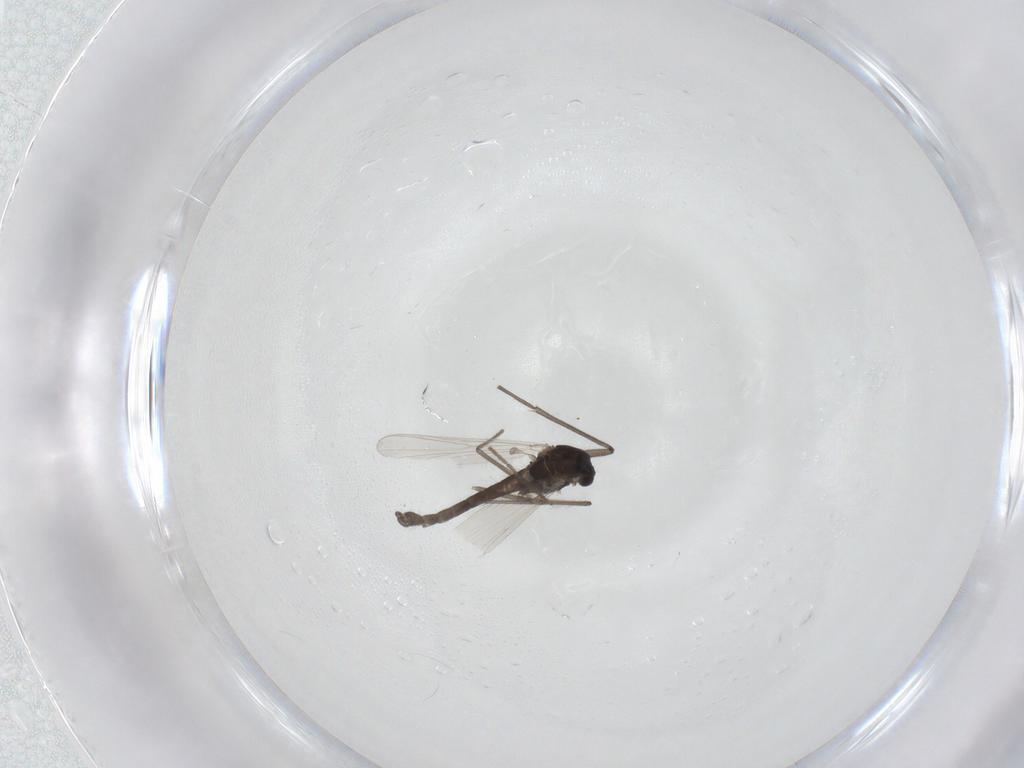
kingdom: Animalia
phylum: Arthropoda
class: Insecta
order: Diptera
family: Chironomidae
